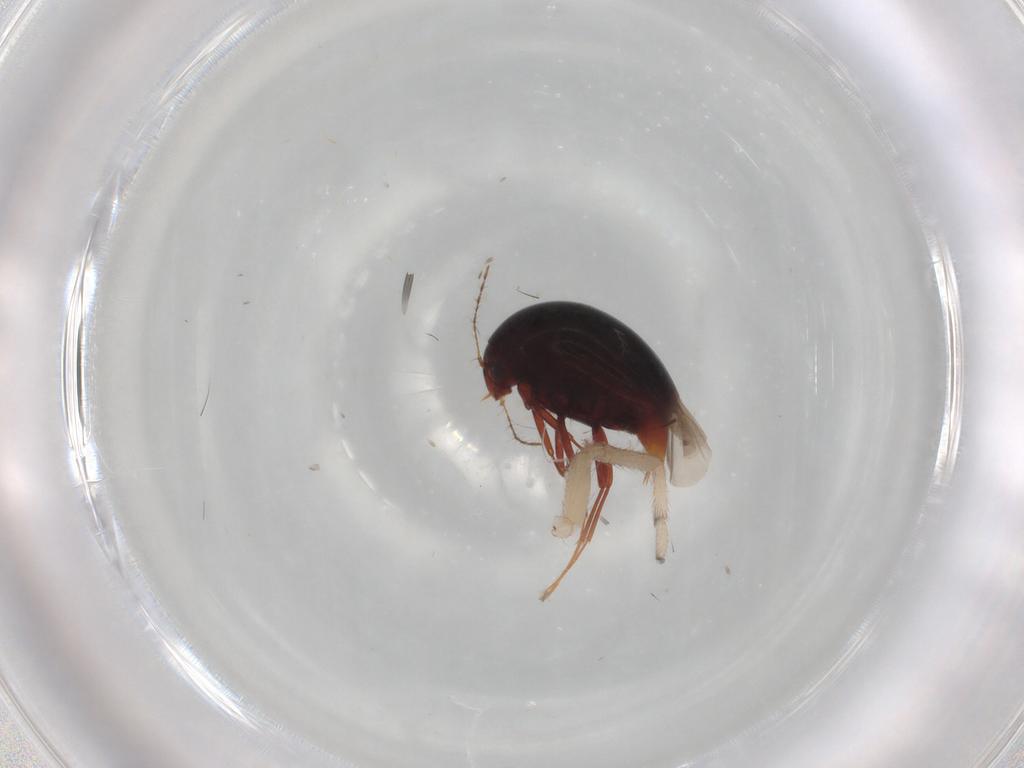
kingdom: Animalia
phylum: Arthropoda
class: Insecta
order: Coleoptera
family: Staphylinidae
